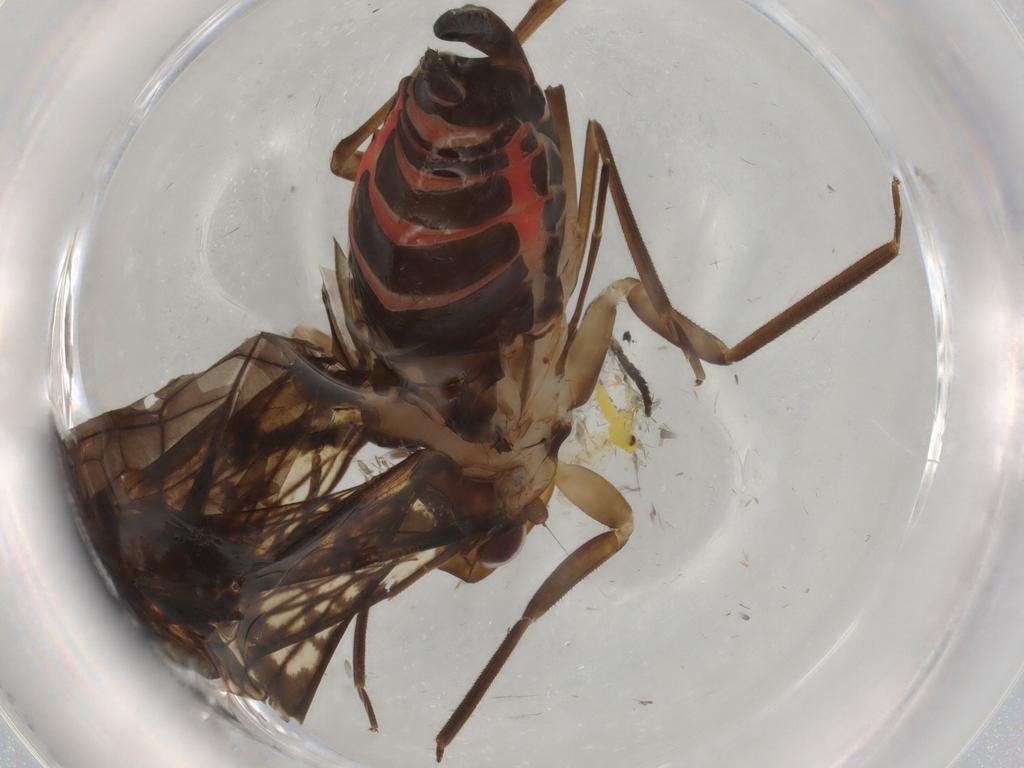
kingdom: Animalia
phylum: Arthropoda
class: Insecta
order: Hemiptera
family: Cixiidae
